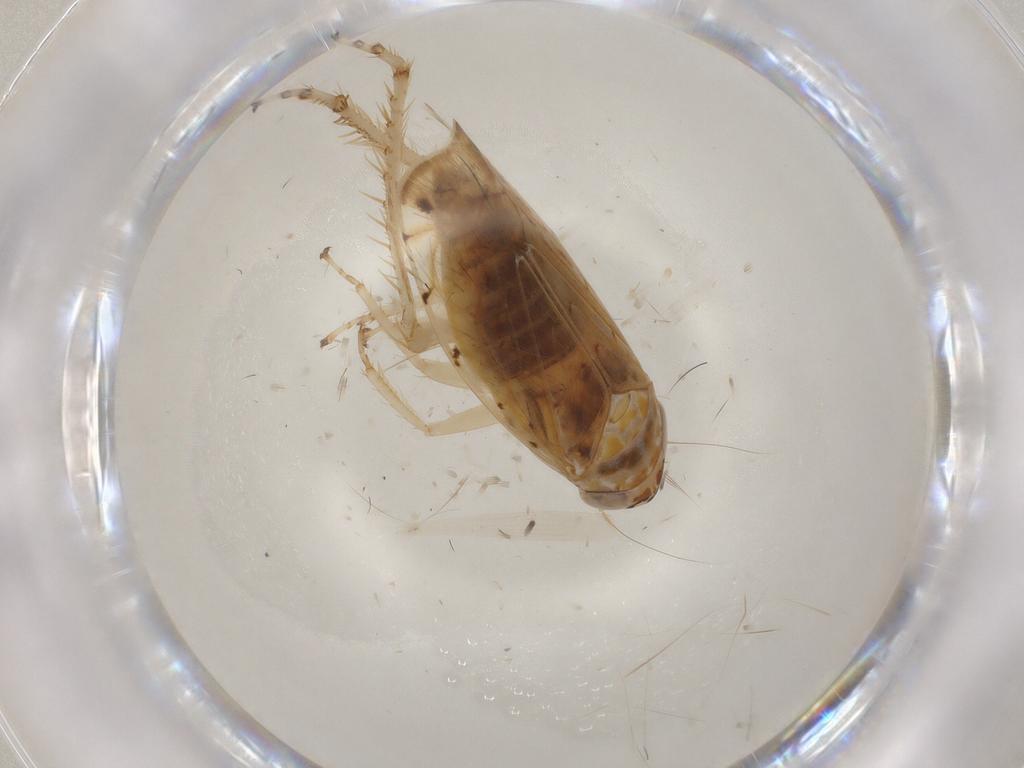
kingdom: Animalia
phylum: Arthropoda
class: Insecta
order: Hemiptera
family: Cicadellidae
